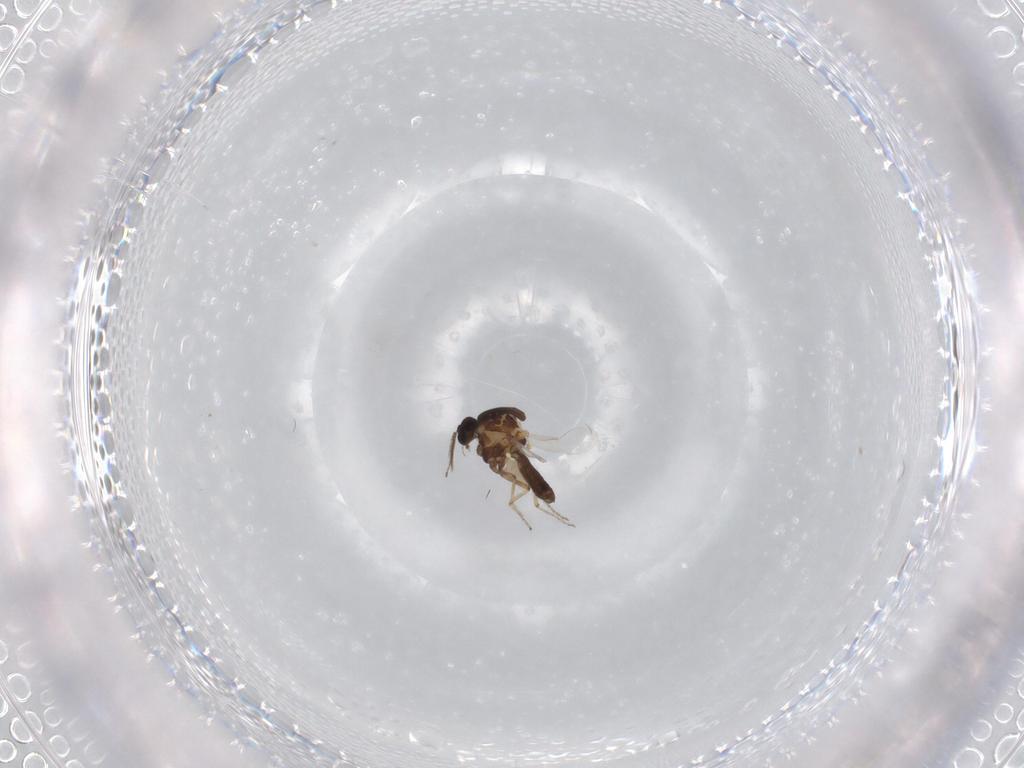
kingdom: Animalia
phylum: Arthropoda
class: Insecta
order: Diptera
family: Ceratopogonidae
